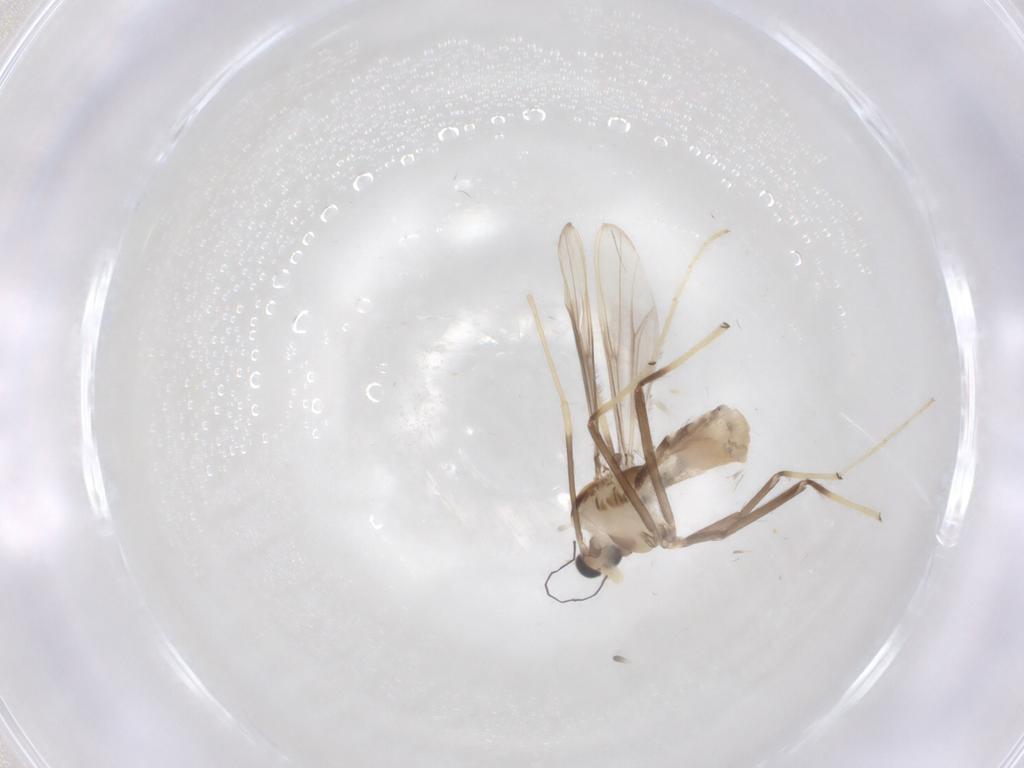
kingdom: Animalia
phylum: Arthropoda
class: Insecta
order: Diptera
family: Chironomidae
